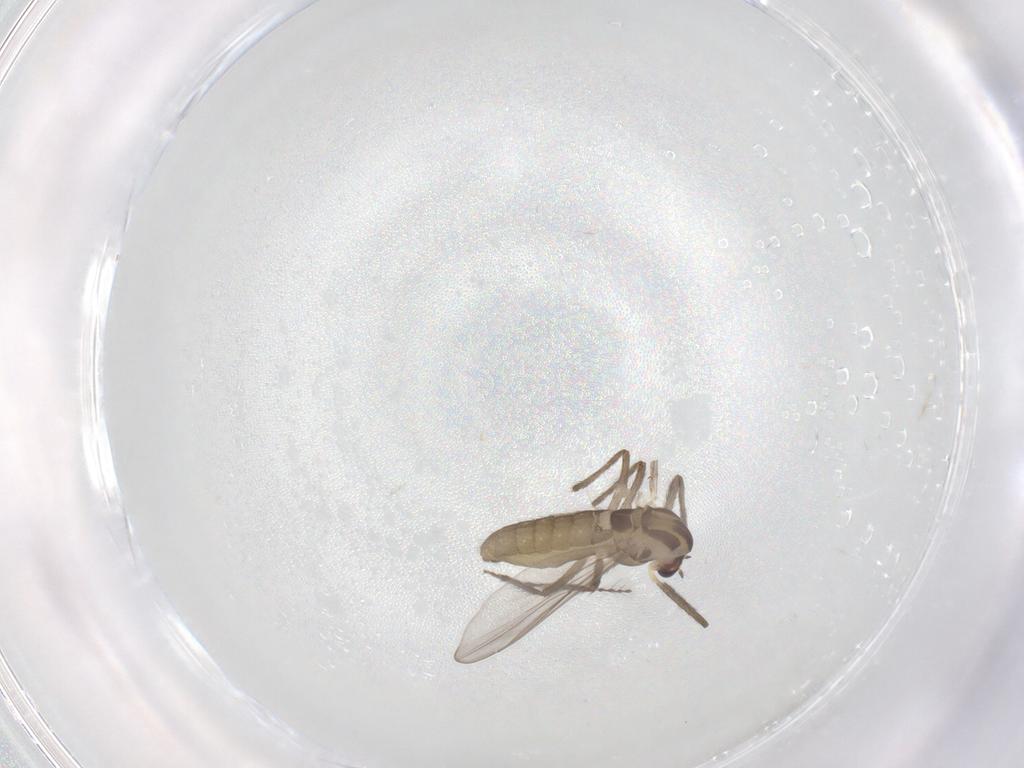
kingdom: Animalia
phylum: Arthropoda
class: Insecta
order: Diptera
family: Chironomidae
